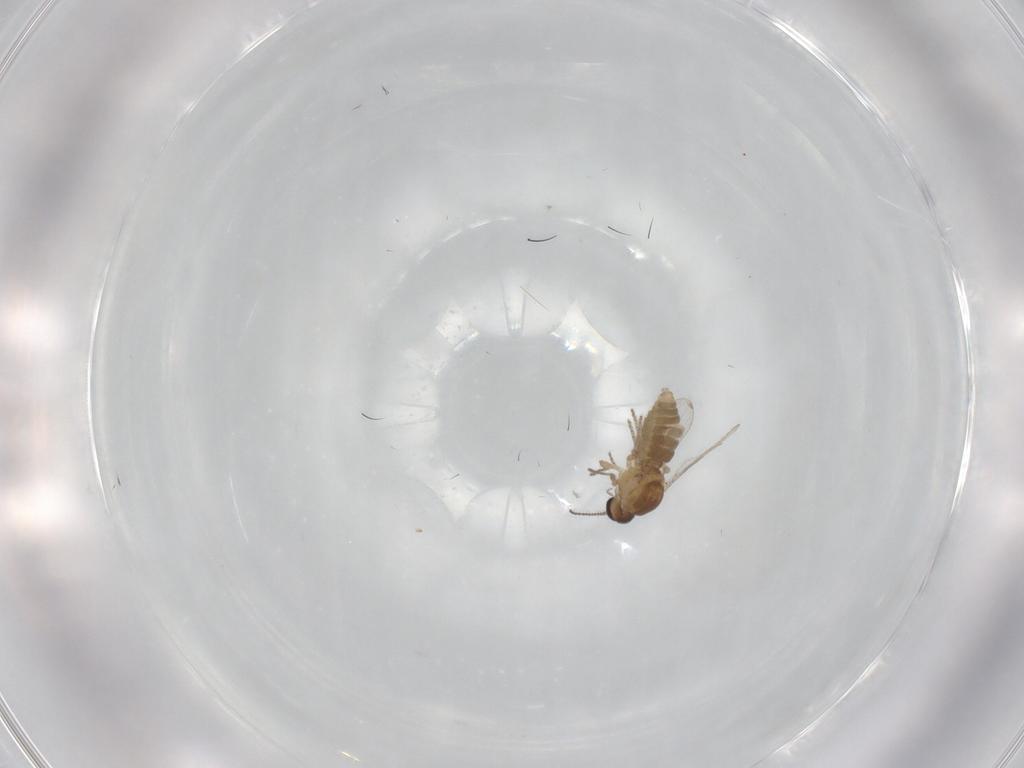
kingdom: Animalia
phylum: Arthropoda
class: Insecta
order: Diptera
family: Ceratopogonidae
